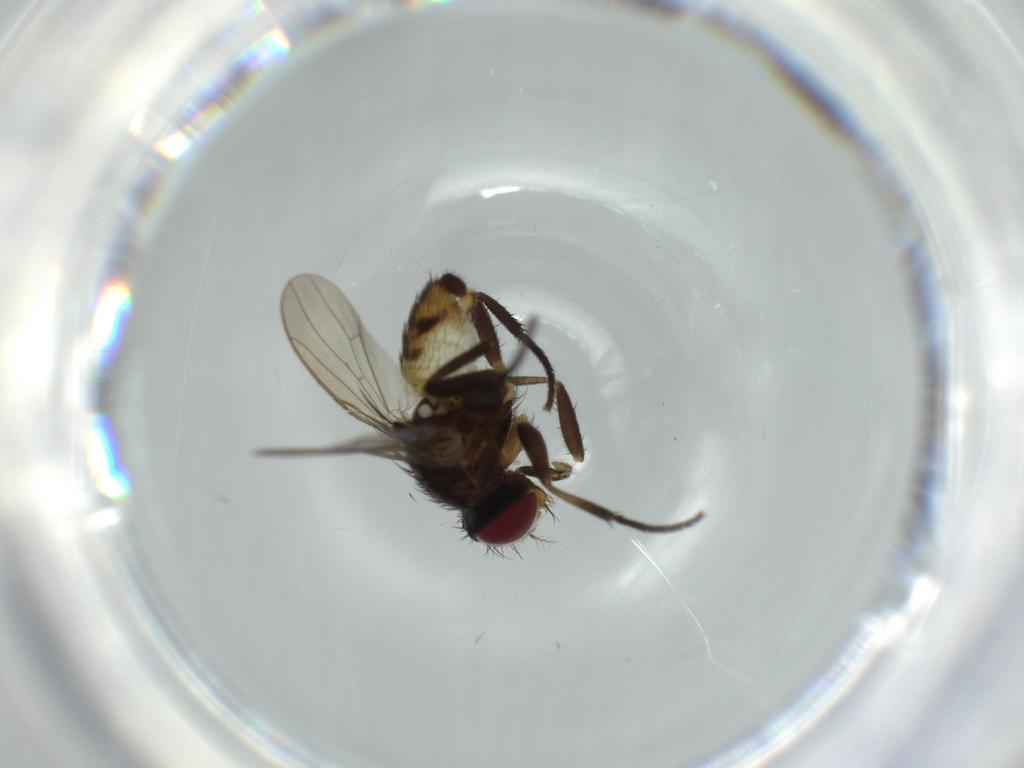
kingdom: Animalia
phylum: Arthropoda
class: Insecta
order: Diptera
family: Anthomyiidae
